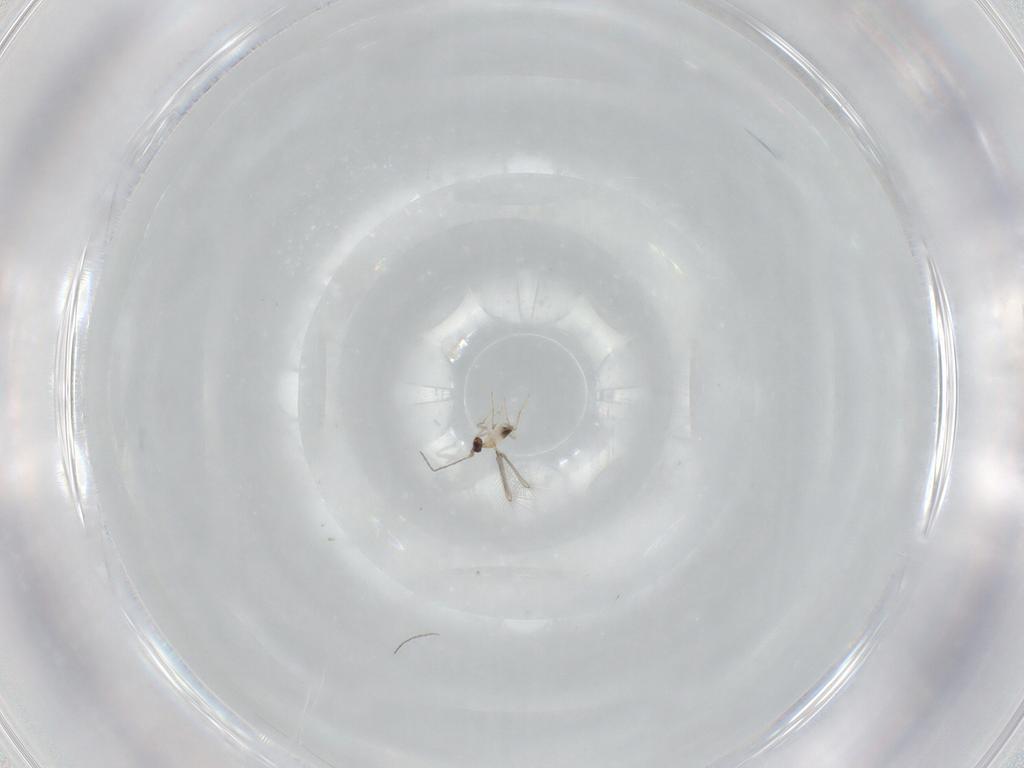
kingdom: Animalia
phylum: Arthropoda
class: Insecta
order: Hymenoptera
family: Mymaridae
